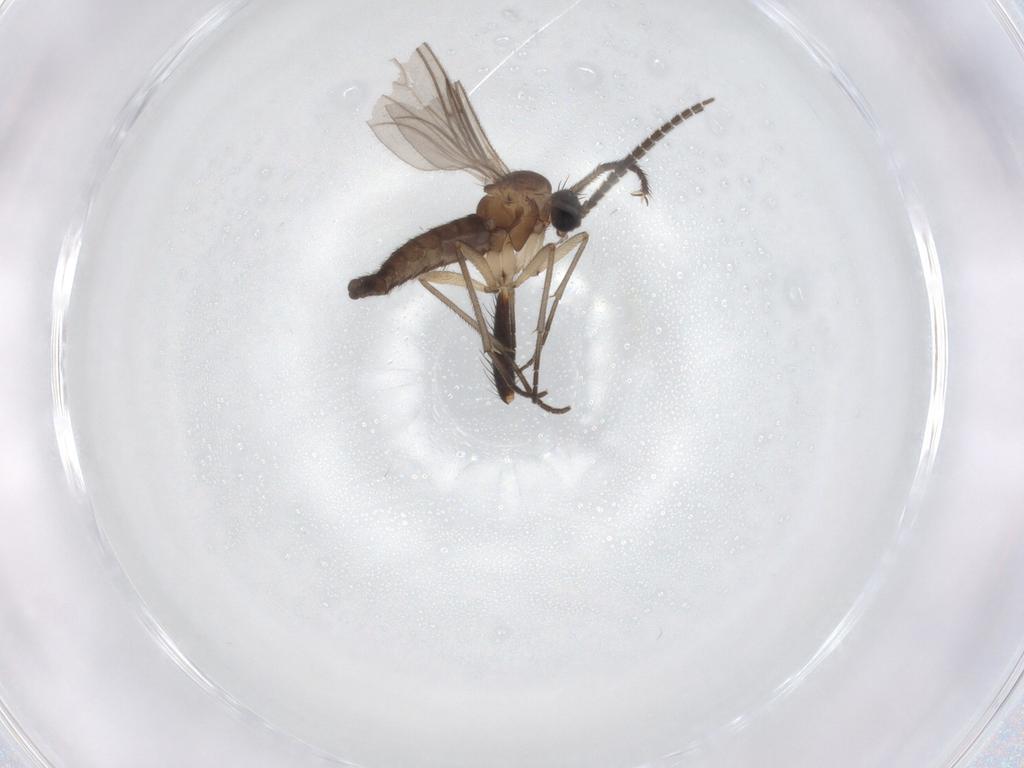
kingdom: Animalia
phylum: Arthropoda
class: Insecta
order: Diptera
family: Sciaridae
